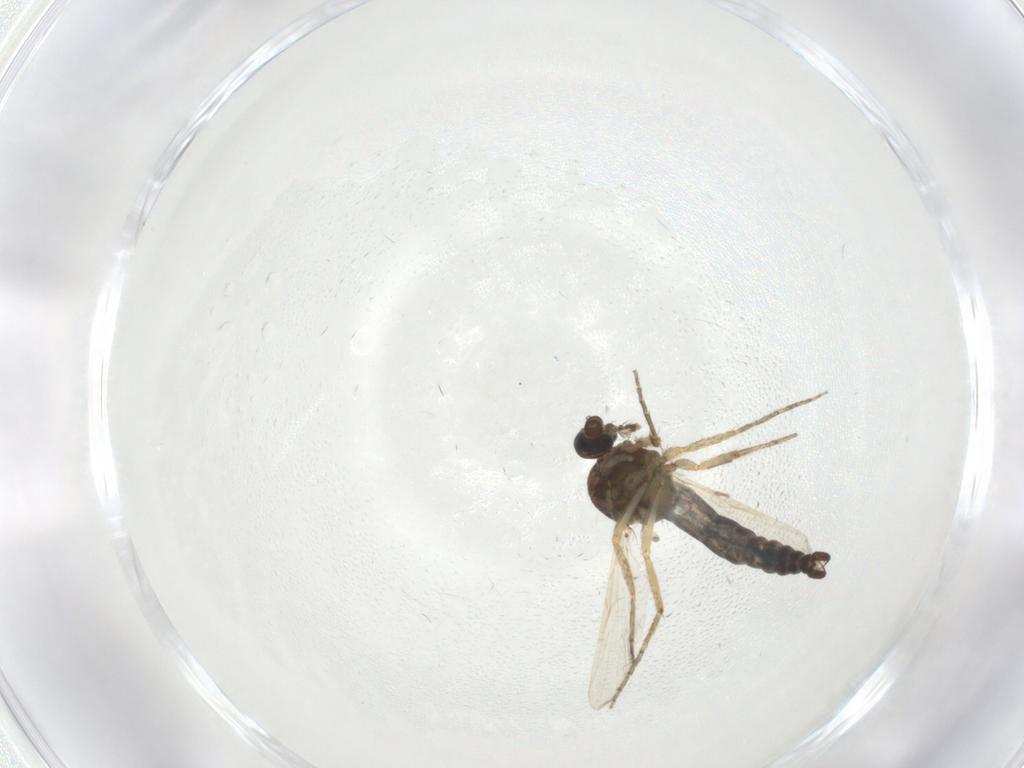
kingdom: Animalia
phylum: Arthropoda
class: Insecta
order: Diptera
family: Ceratopogonidae
